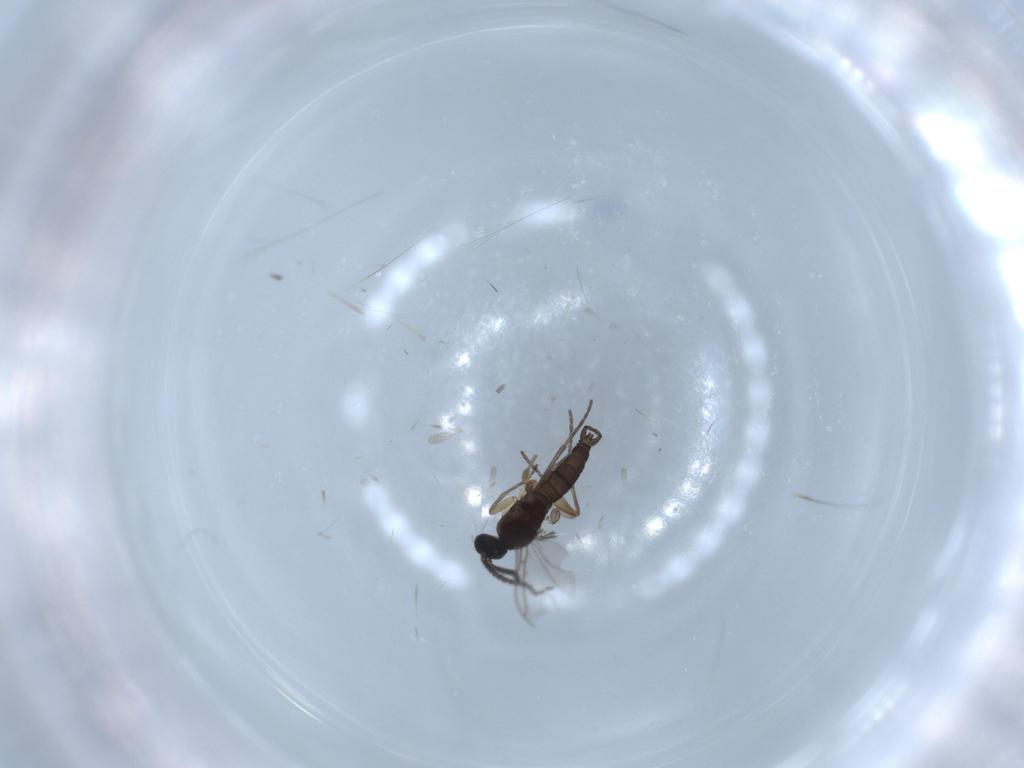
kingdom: Animalia
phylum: Arthropoda
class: Insecta
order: Diptera
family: Sciaridae
